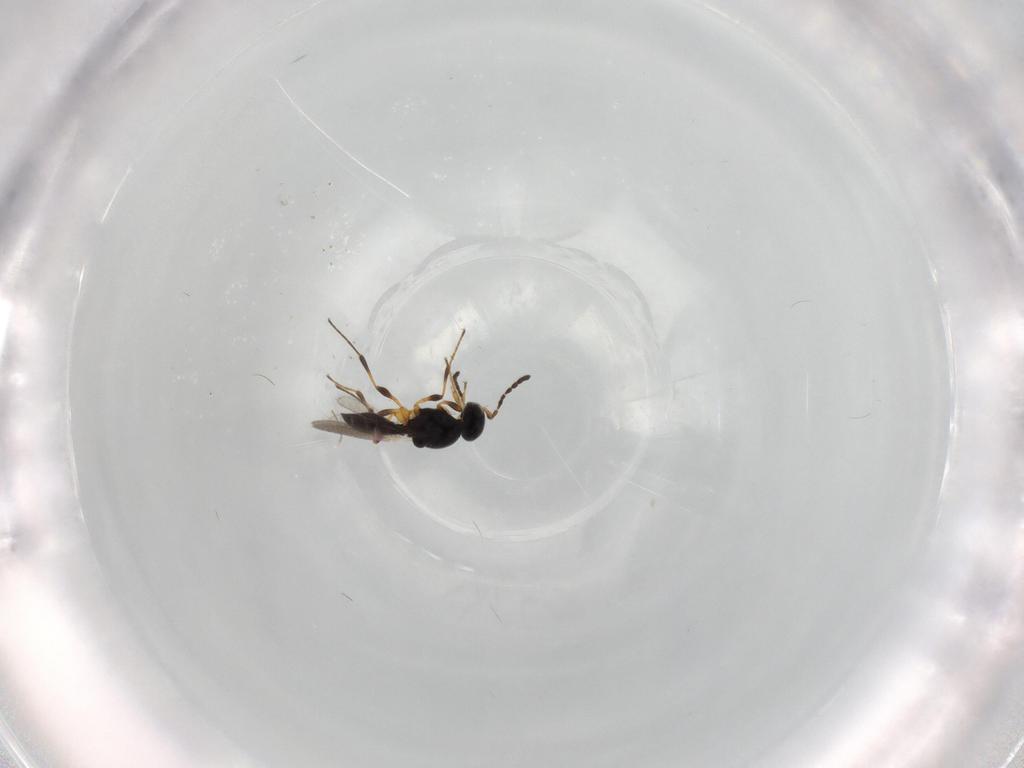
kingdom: Animalia
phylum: Arthropoda
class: Insecta
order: Hymenoptera
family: Platygastridae
